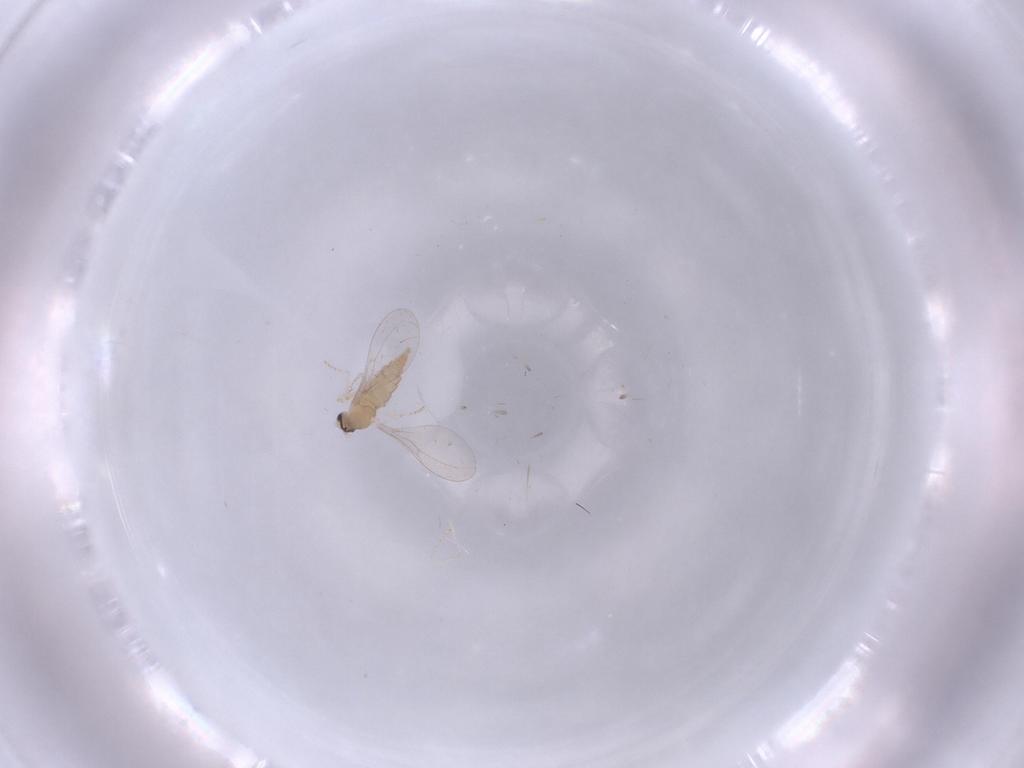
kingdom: Animalia
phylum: Arthropoda
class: Insecta
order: Diptera
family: Cecidomyiidae
